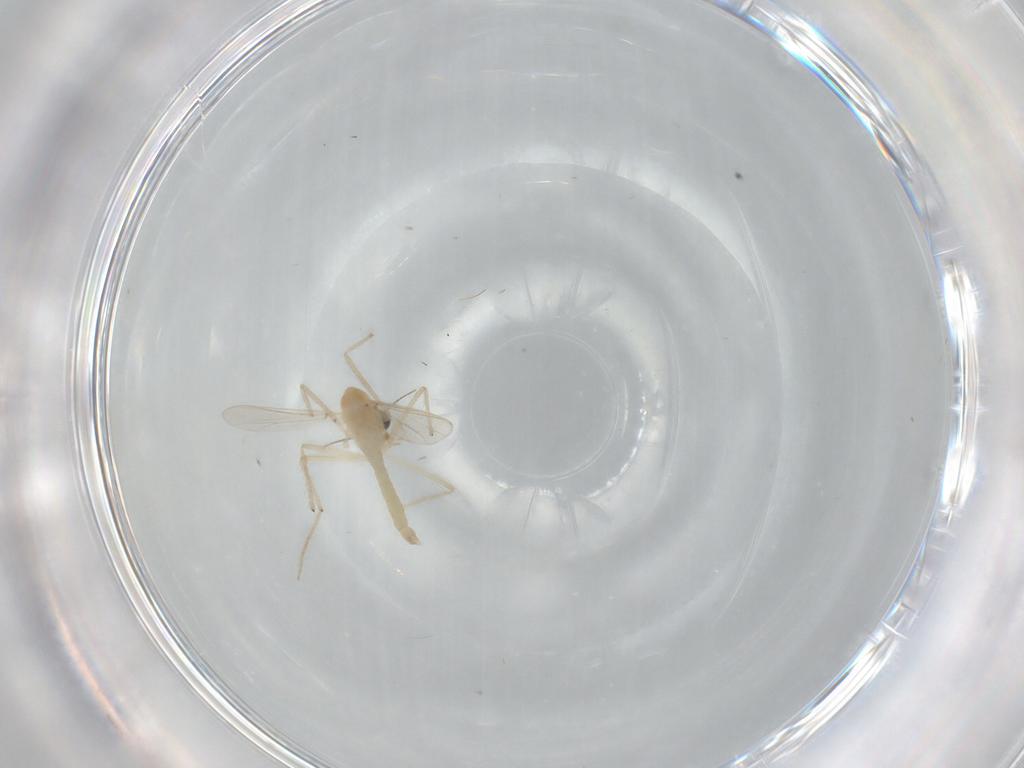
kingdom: Animalia
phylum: Arthropoda
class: Insecta
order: Diptera
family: Chironomidae
